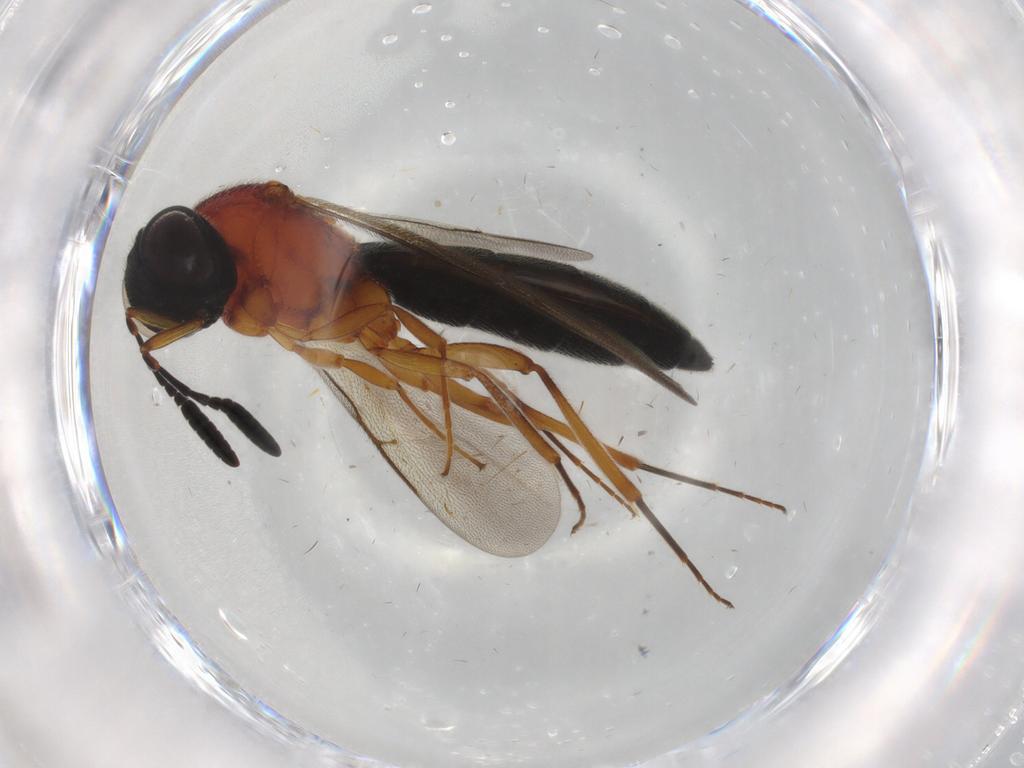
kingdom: Animalia
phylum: Arthropoda
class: Insecta
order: Hymenoptera
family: Scelionidae
